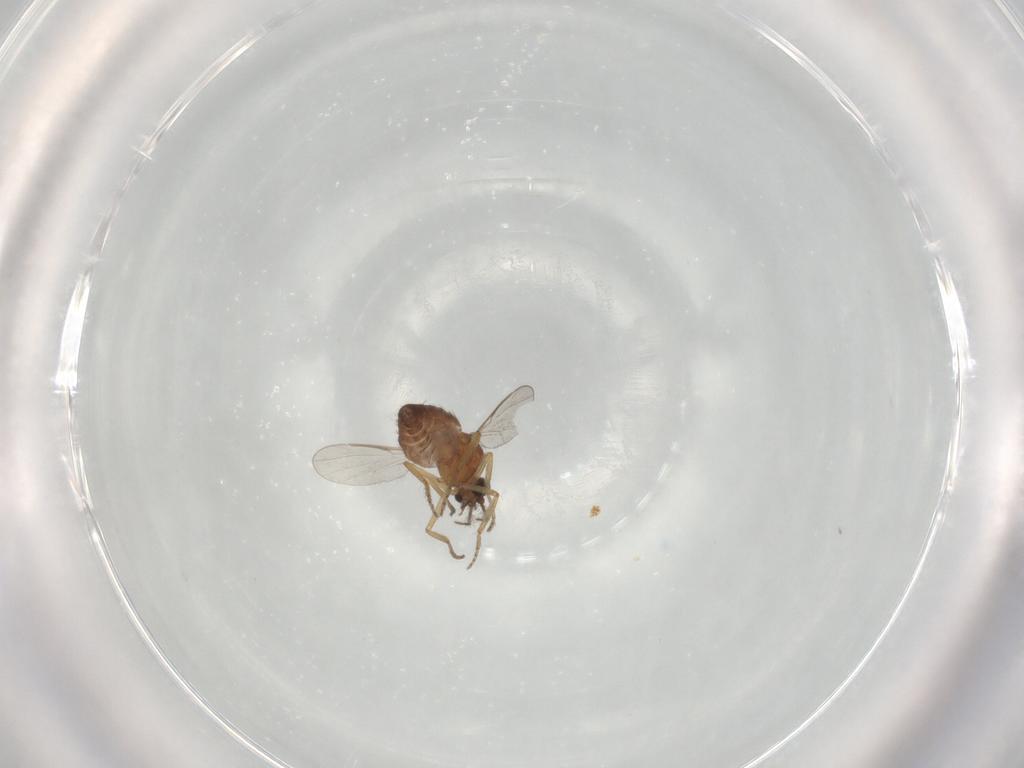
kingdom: Animalia
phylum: Arthropoda
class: Insecta
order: Diptera
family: Ceratopogonidae
